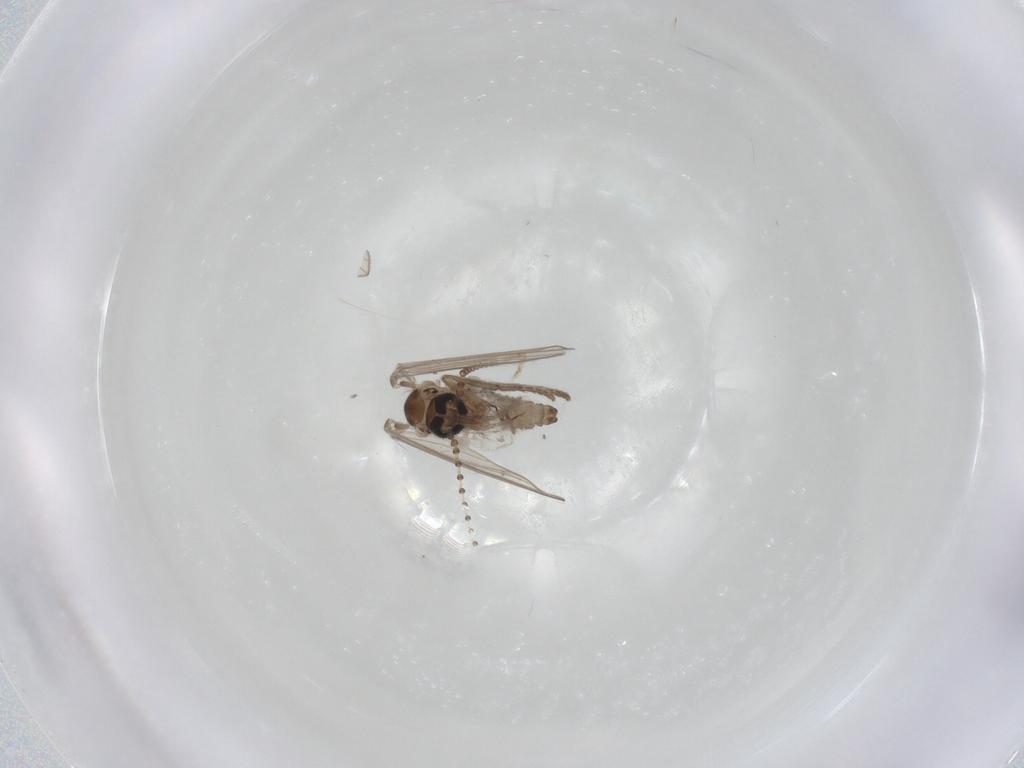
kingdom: Animalia
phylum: Arthropoda
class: Insecta
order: Diptera
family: Psychodidae
